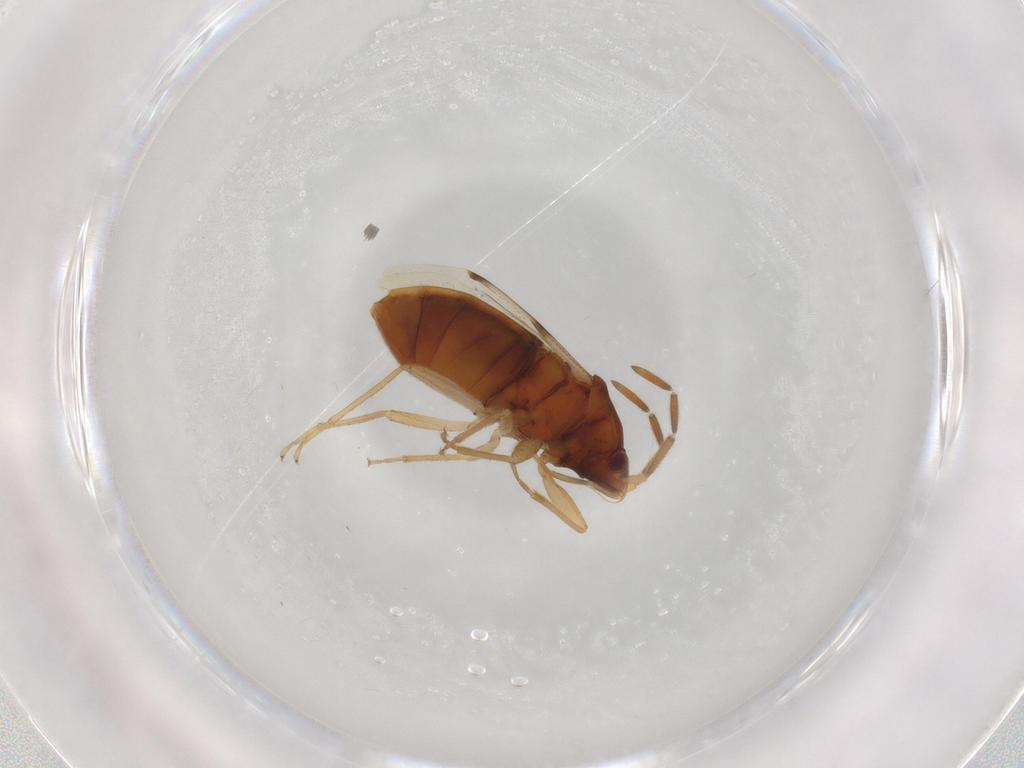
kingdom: Animalia
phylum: Arthropoda
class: Insecta
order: Hemiptera
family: Rhyparochromidae
